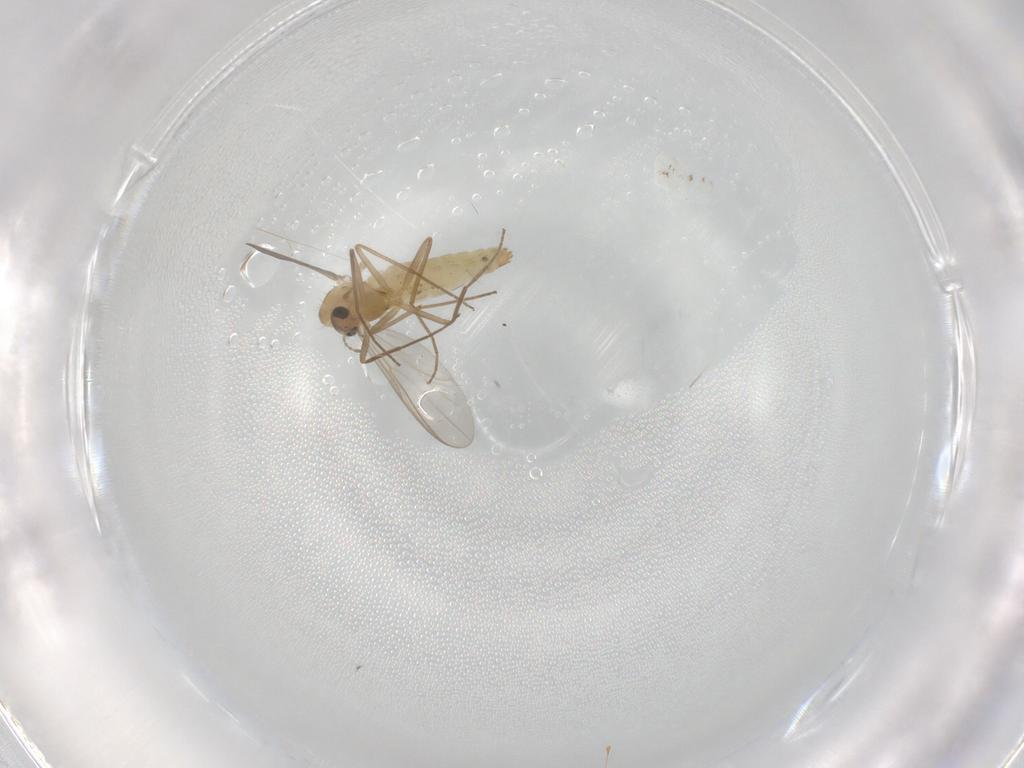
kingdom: Animalia
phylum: Arthropoda
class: Insecta
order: Diptera
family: Chironomidae
